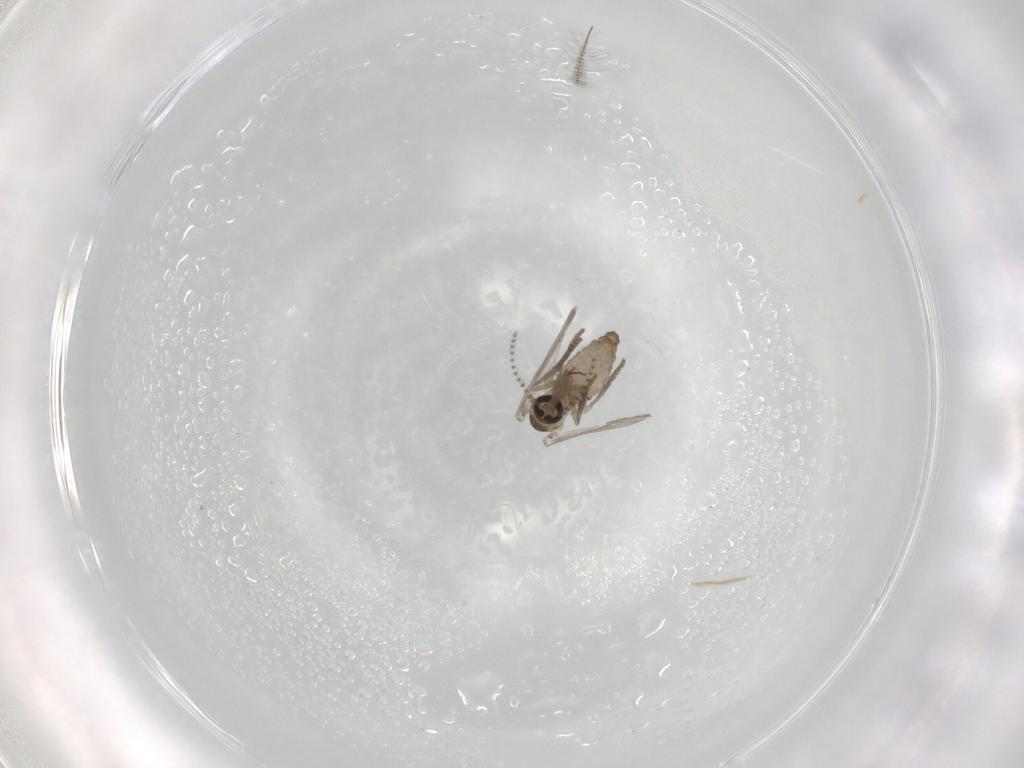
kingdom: Animalia
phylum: Arthropoda
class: Insecta
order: Diptera
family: Psychodidae
